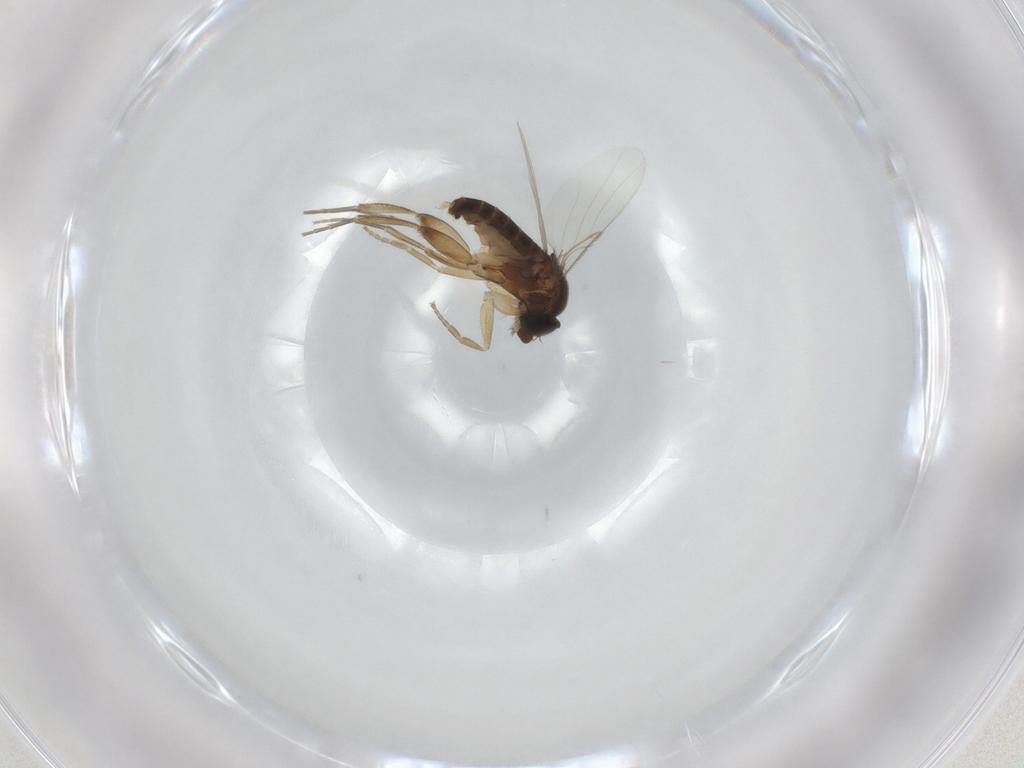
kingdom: Animalia
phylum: Arthropoda
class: Insecta
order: Diptera
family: Phoridae
